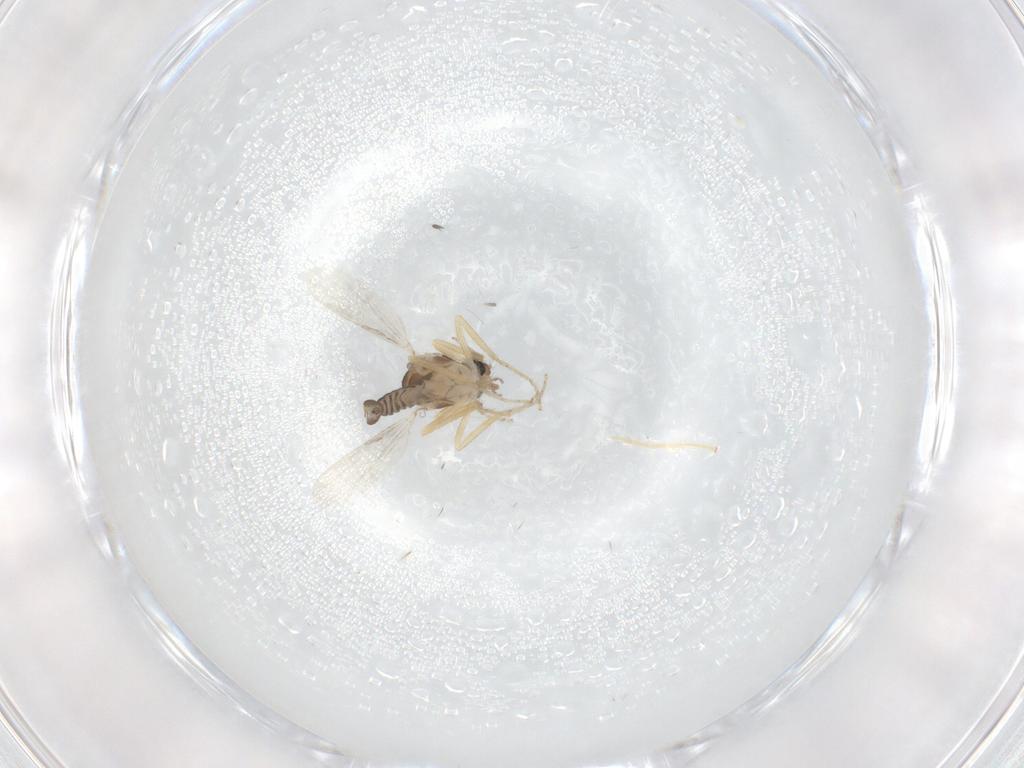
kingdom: Animalia
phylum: Arthropoda
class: Insecta
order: Diptera
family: Ceratopogonidae
